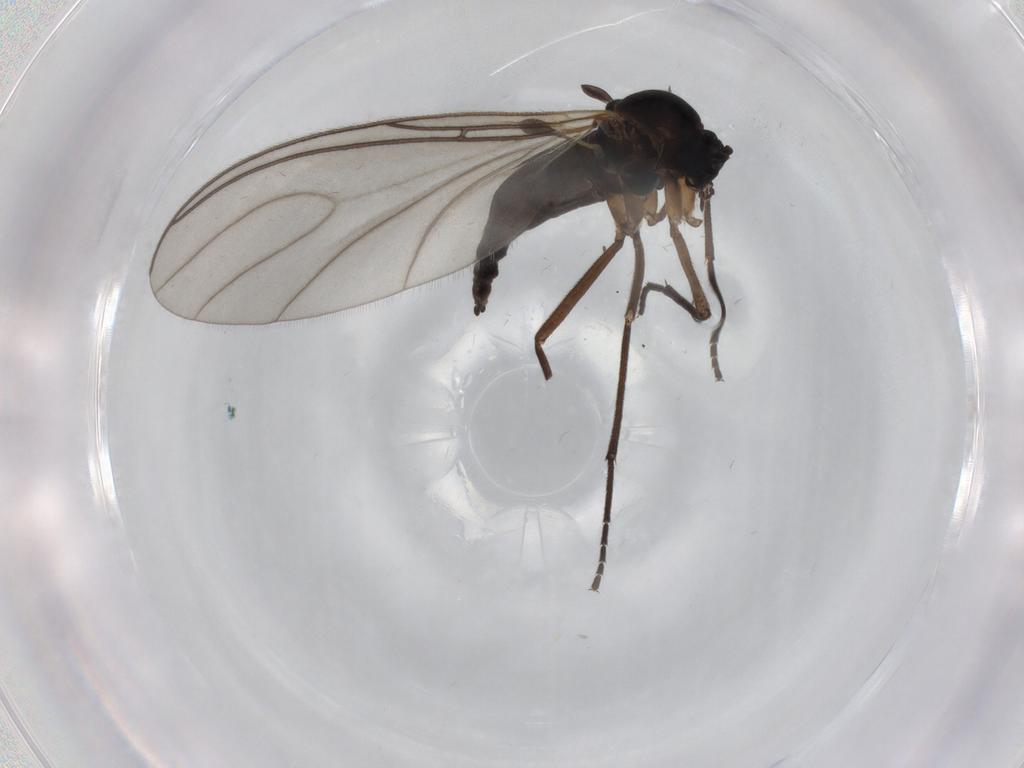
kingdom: Animalia
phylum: Arthropoda
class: Insecta
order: Diptera
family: Sciaridae
